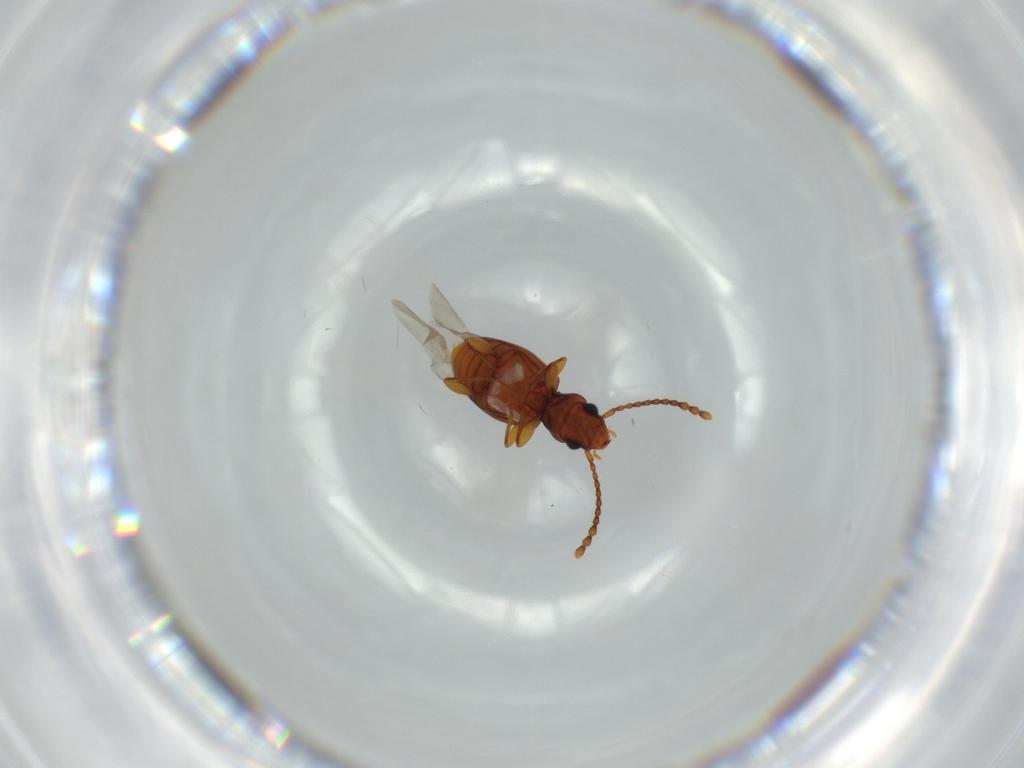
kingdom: Animalia
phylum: Arthropoda
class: Insecta
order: Coleoptera
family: Laemophloeidae
